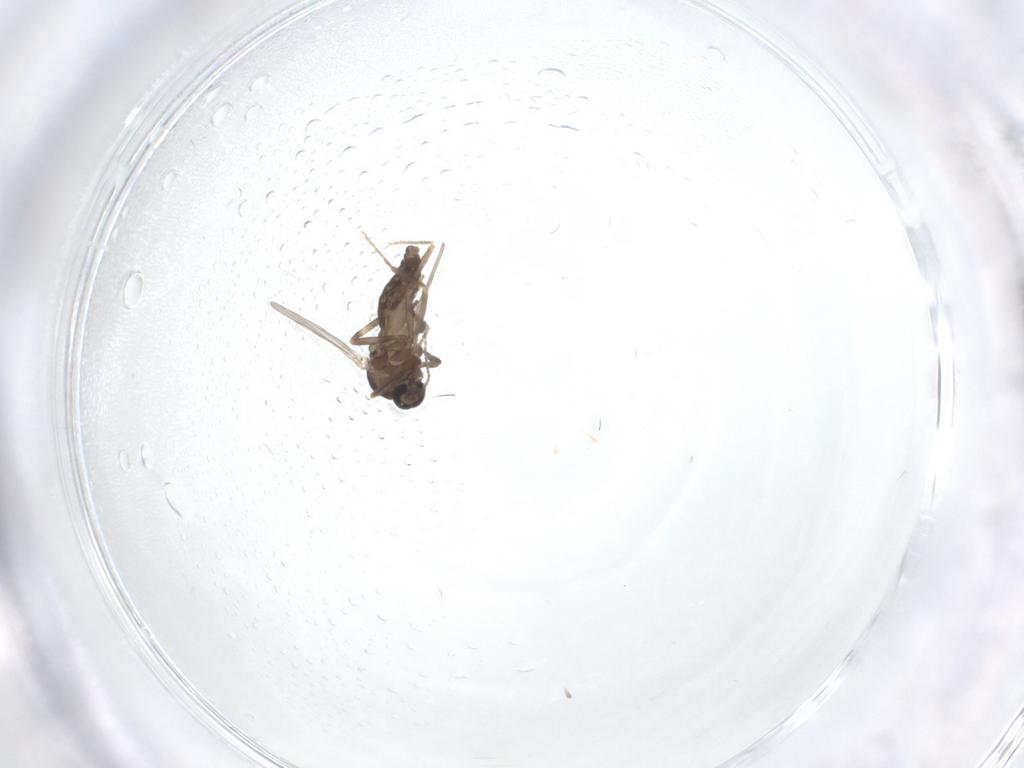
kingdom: Animalia
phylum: Arthropoda
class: Insecta
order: Diptera
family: Ceratopogonidae
